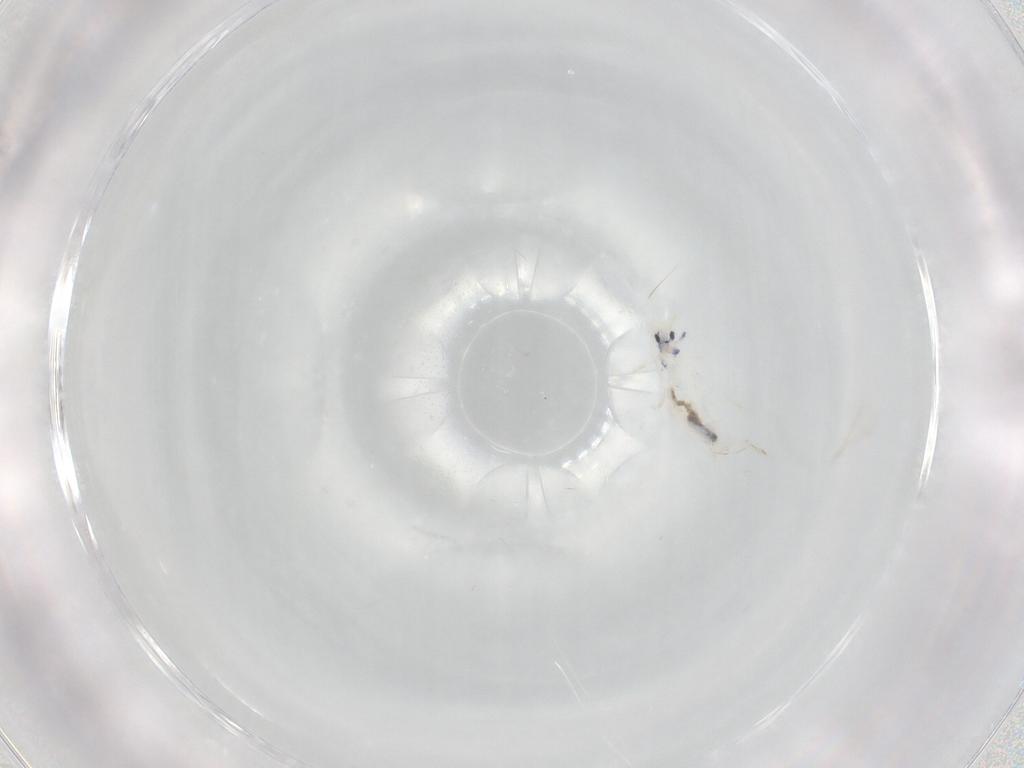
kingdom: Animalia
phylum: Arthropoda
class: Collembola
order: Entomobryomorpha
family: Entomobryidae
